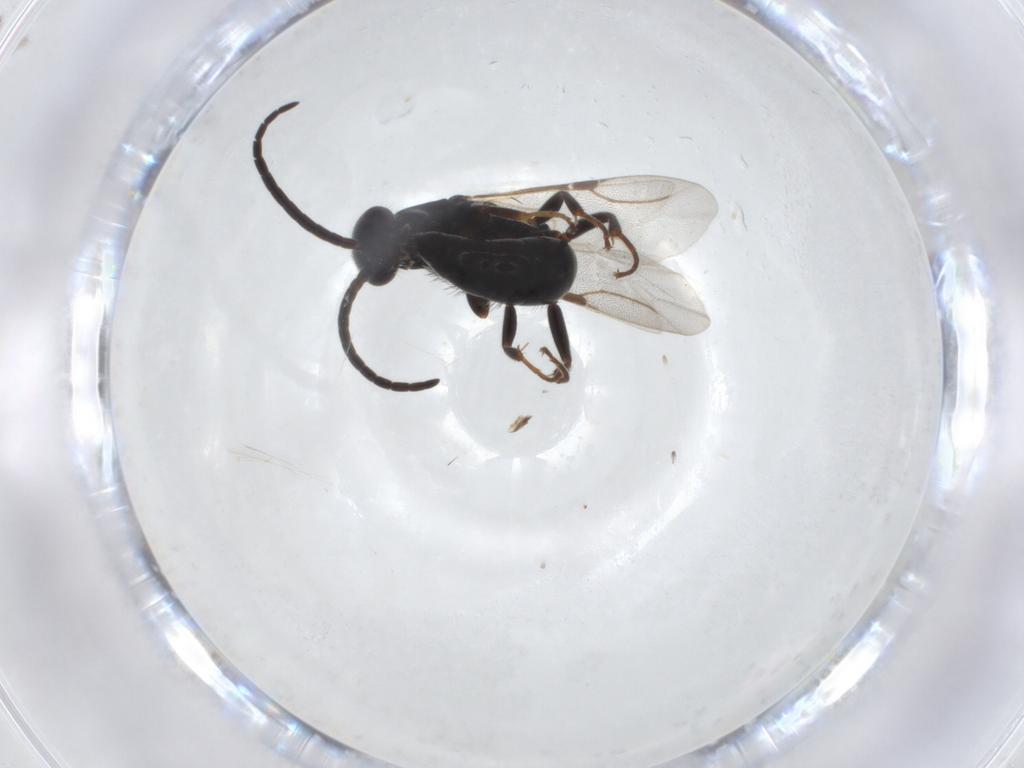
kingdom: Animalia
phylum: Arthropoda
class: Insecta
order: Hymenoptera
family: Bethylidae
